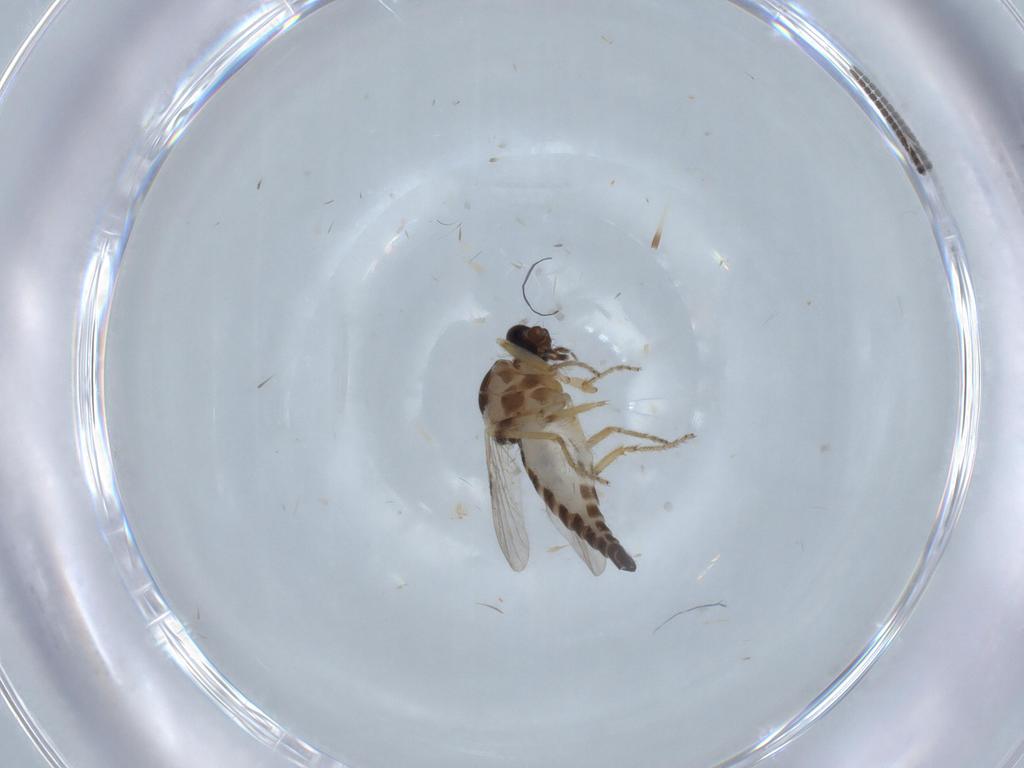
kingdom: Animalia
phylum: Arthropoda
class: Insecta
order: Diptera
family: Ceratopogonidae
